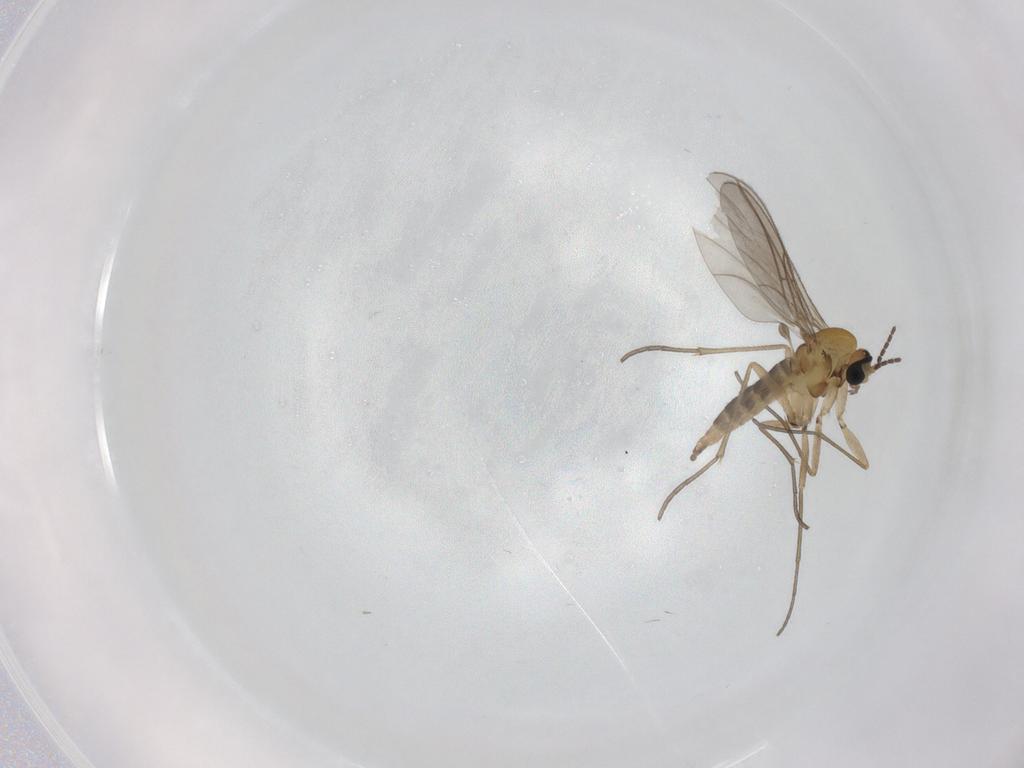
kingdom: Animalia
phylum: Arthropoda
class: Insecta
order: Diptera
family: Sciaridae
